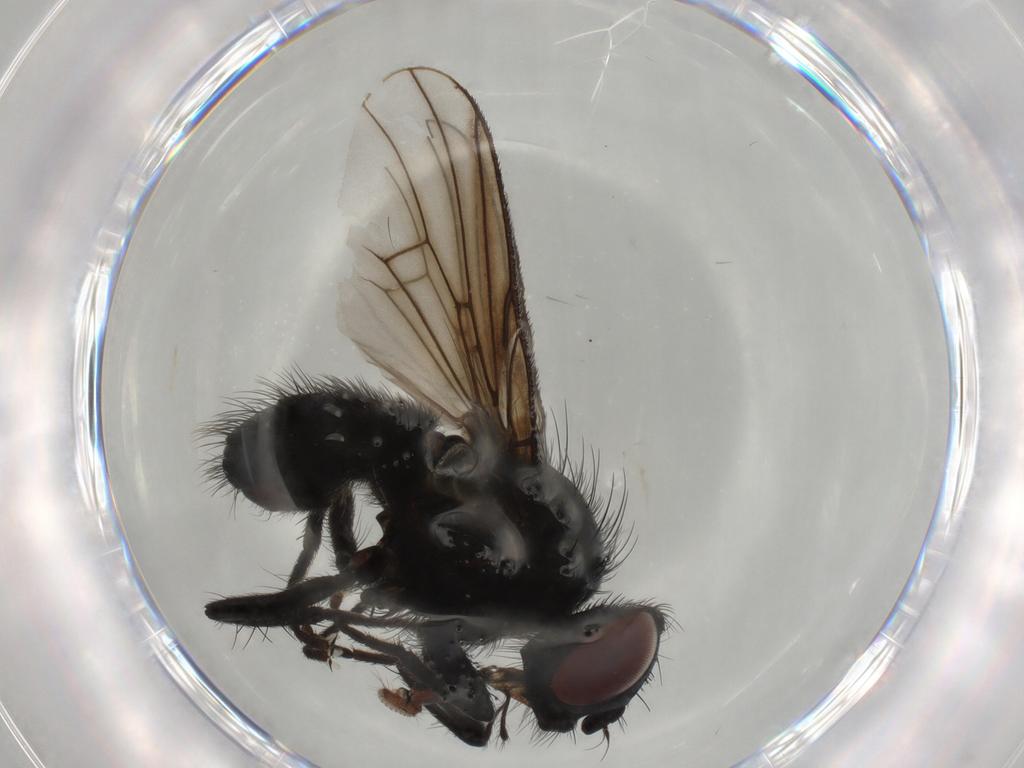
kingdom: Animalia
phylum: Arthropoda
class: Insecta
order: Diptera
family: Muscidae
